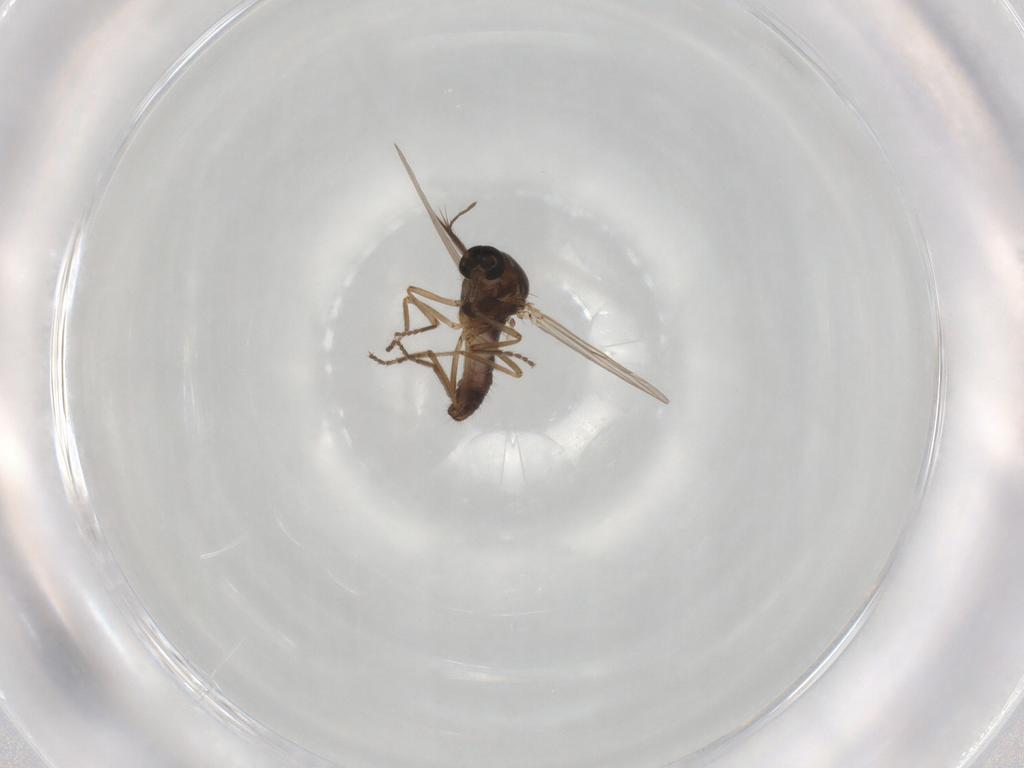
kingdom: Animalia
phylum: Arthropoda
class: Insecta
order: Diptera
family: Ceratopogonidae
